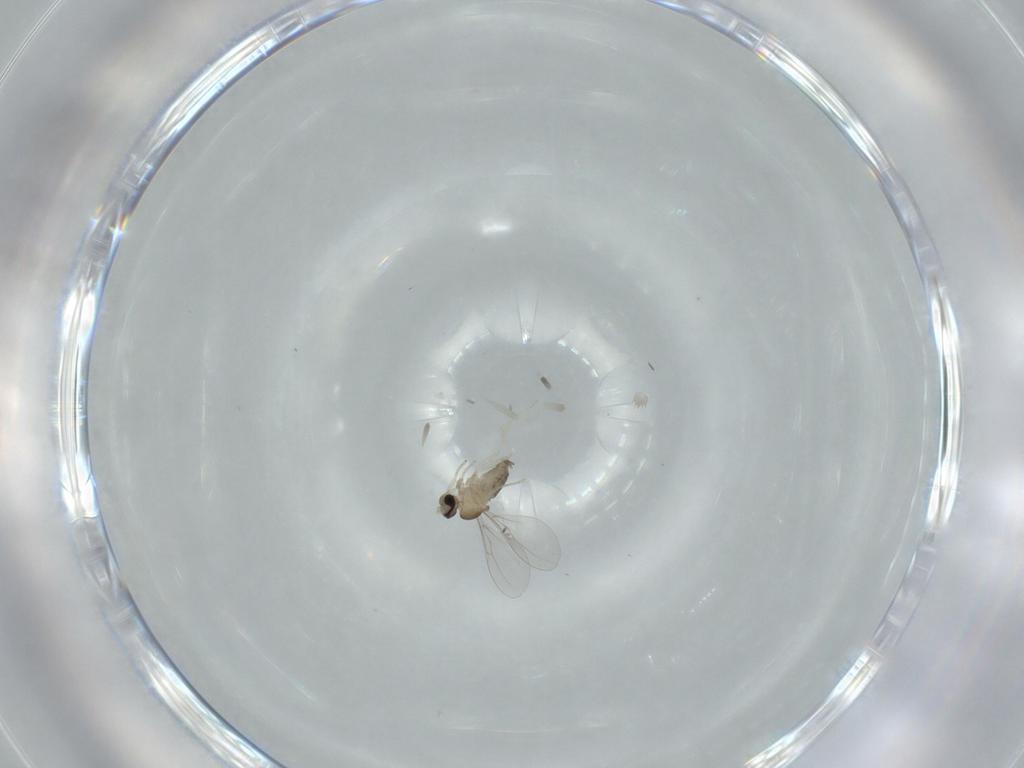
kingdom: Animalia
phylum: Arthropoda
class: Insecta
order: Diptera
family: Cecidomyiidae
